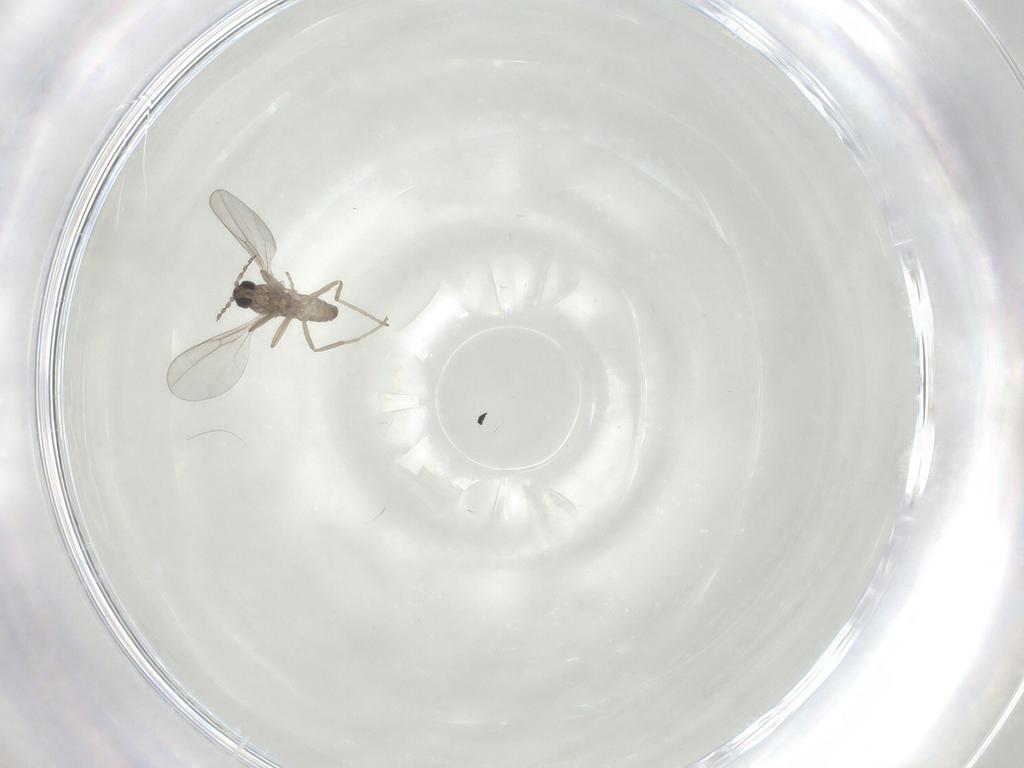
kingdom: Animalia
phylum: Arthropoda
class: Insecta
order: Diptera
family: Cecidomyiidae
